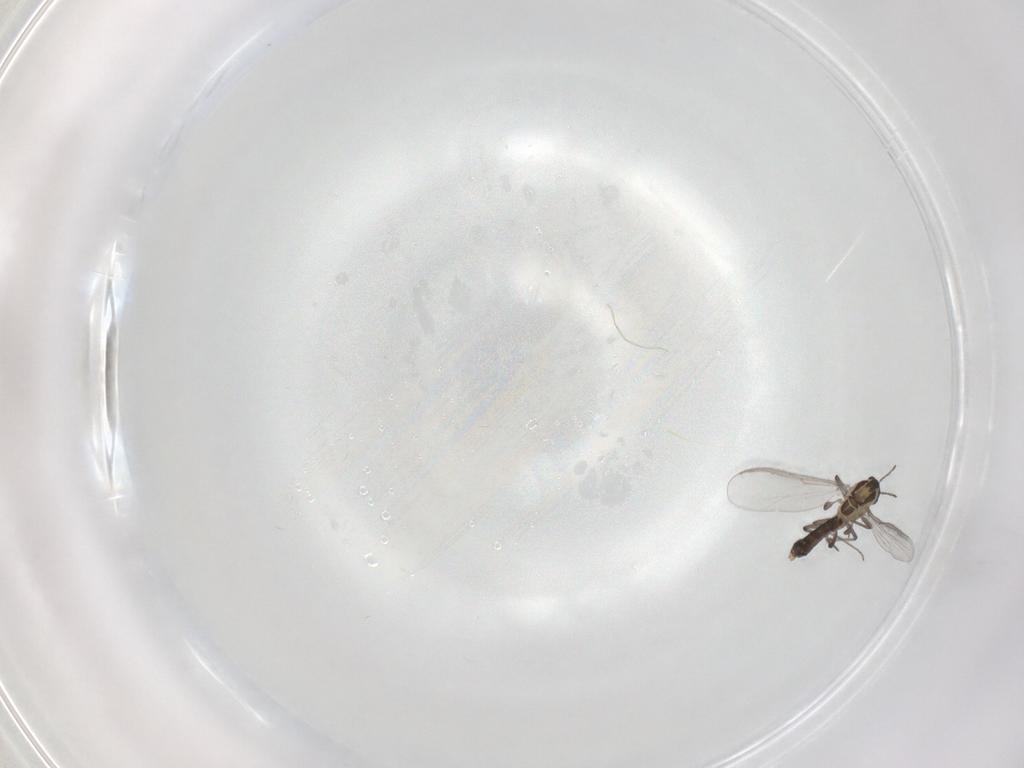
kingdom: Animalia
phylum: Arthropoda
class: Insecta
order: Diptera
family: Chironomidae
